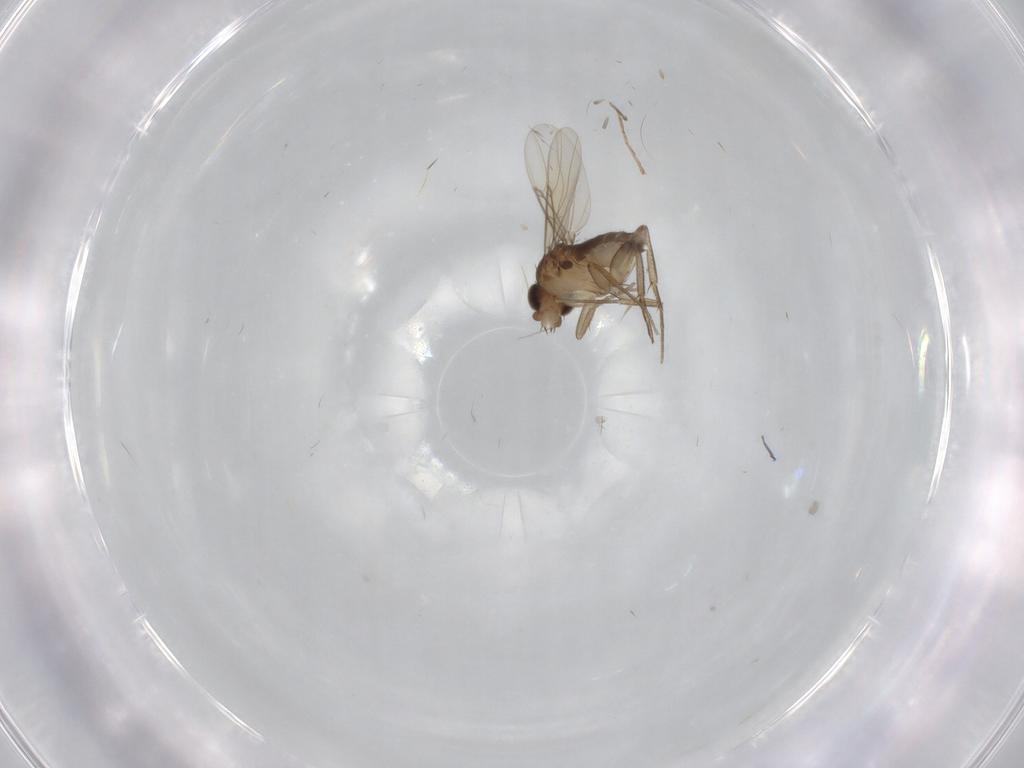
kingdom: Animalia
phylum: Arthropoda
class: Insecta
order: Diptera
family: Phoridae
